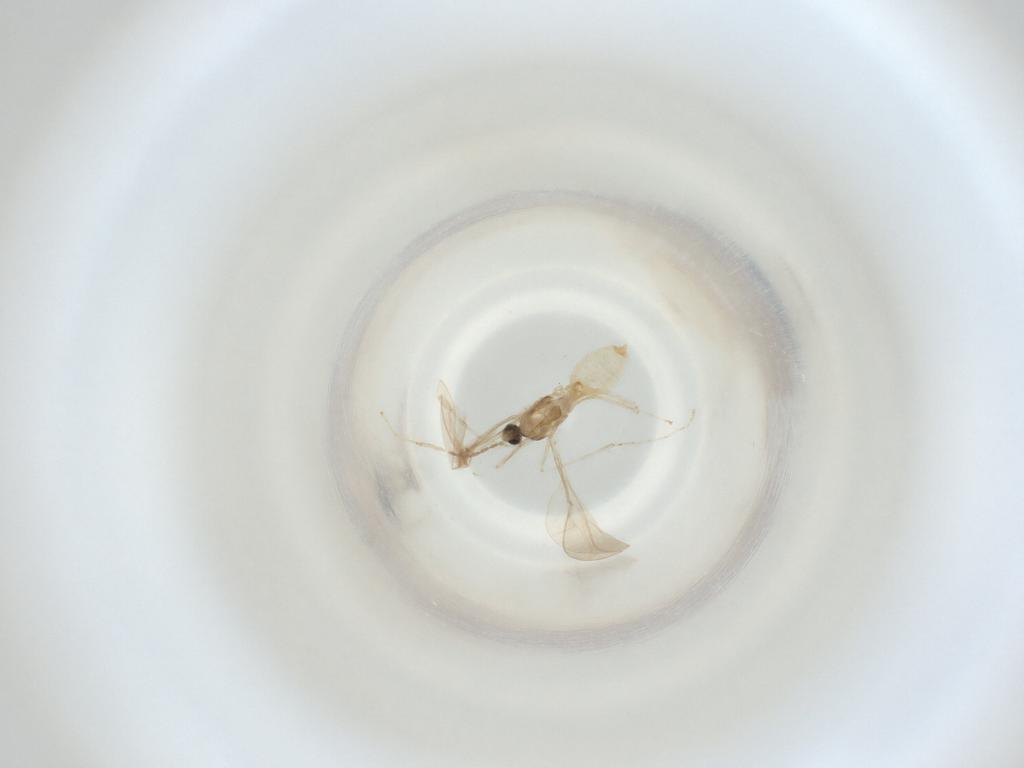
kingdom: Animalia
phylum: Arthropoda
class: Insecta
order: Diptera
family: Cecidomyiidae
